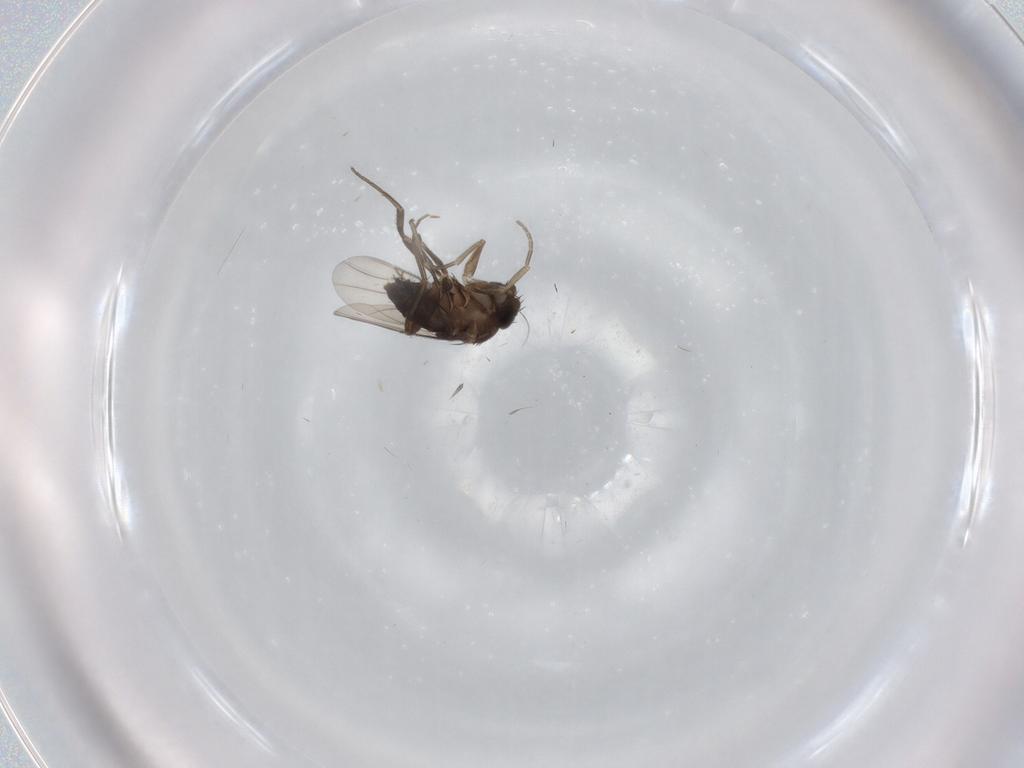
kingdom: Animalia
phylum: Arthropoda
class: Insecta
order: Diptera
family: Phoridae
